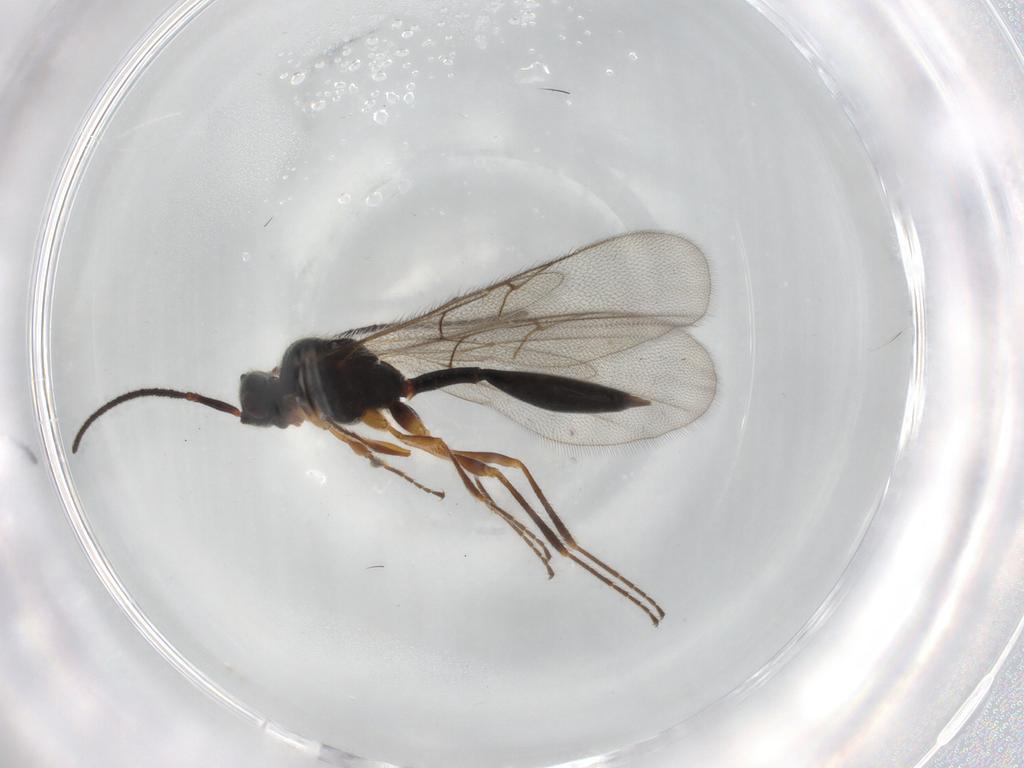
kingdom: Animalia
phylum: Arthropoda
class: Insecta
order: Hymenoptera
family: Diapriidae
